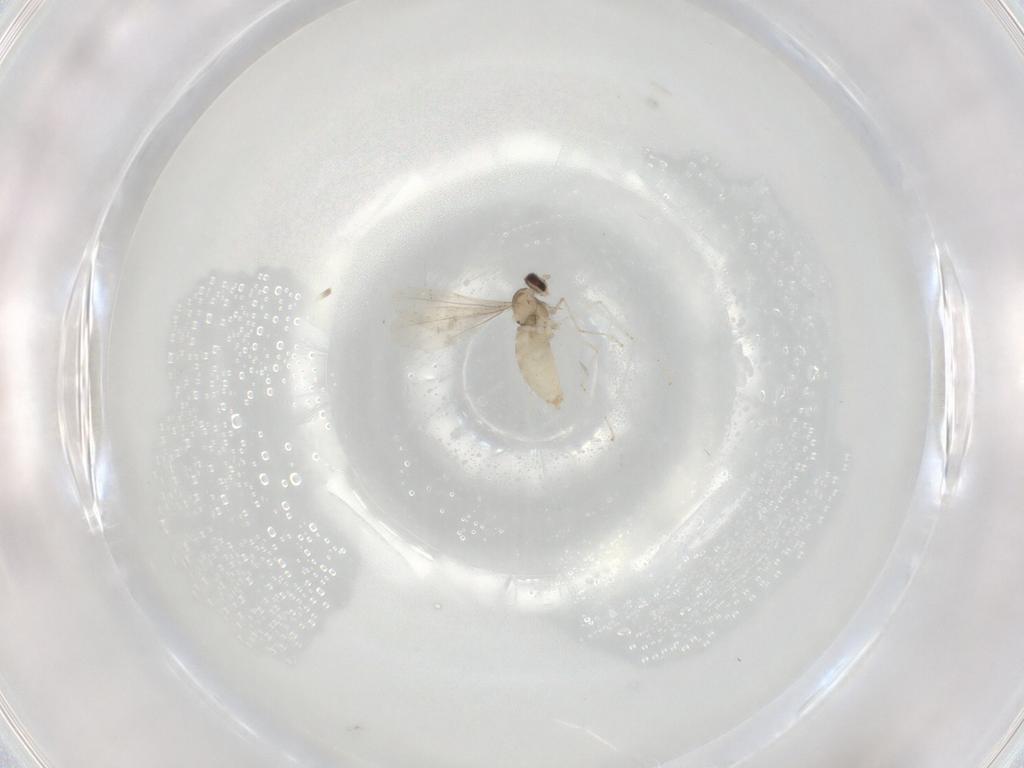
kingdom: Animalia
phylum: Arthropoda
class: Insecta
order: Diptera
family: Cecidomyiidae
